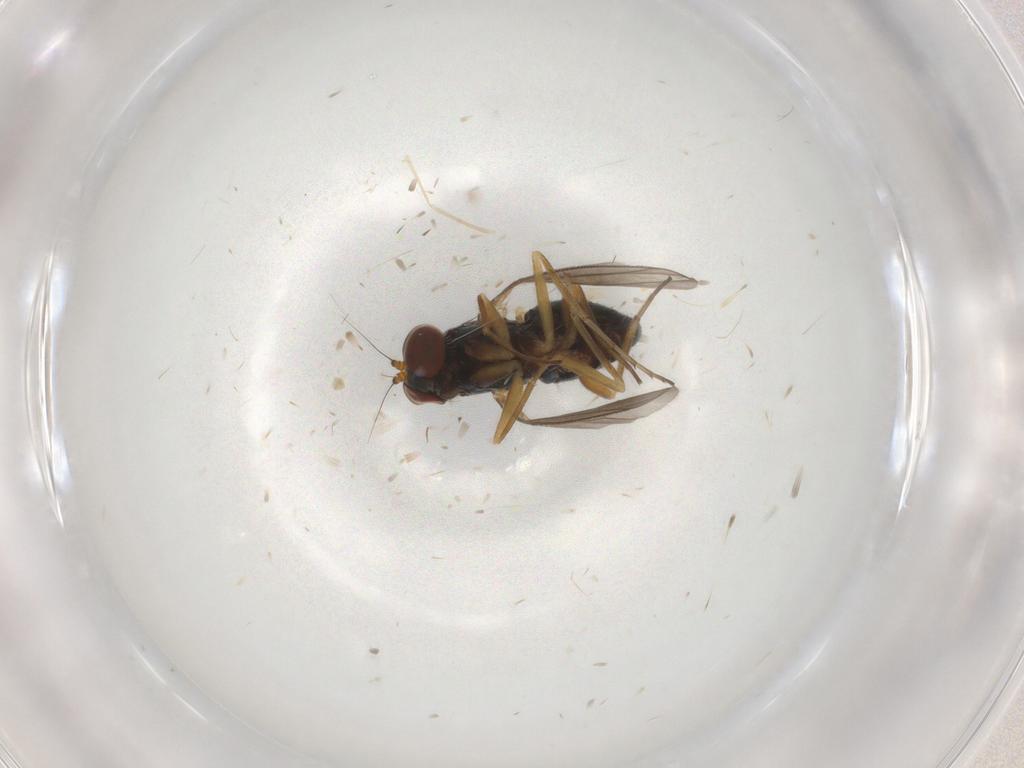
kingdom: Animalia
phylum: Arthropoda
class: Insecta
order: Diptera
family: Dolichopodidae
